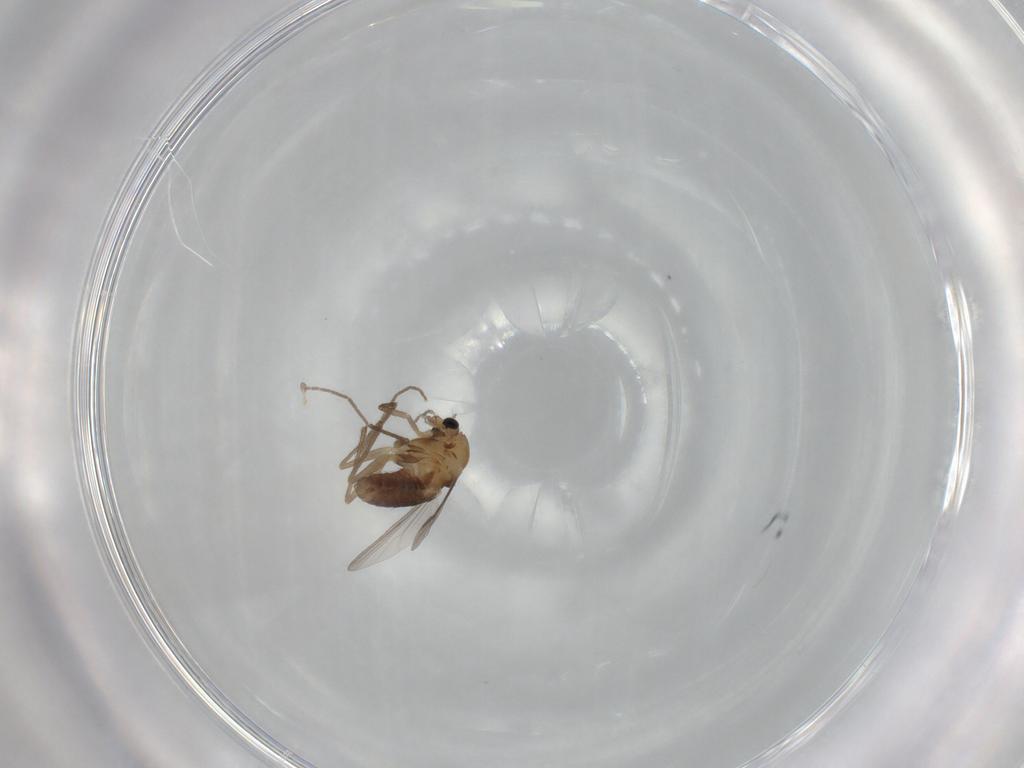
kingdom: Animalia
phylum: Arthropoda
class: Insecta
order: Diptera
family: Chironomidae
